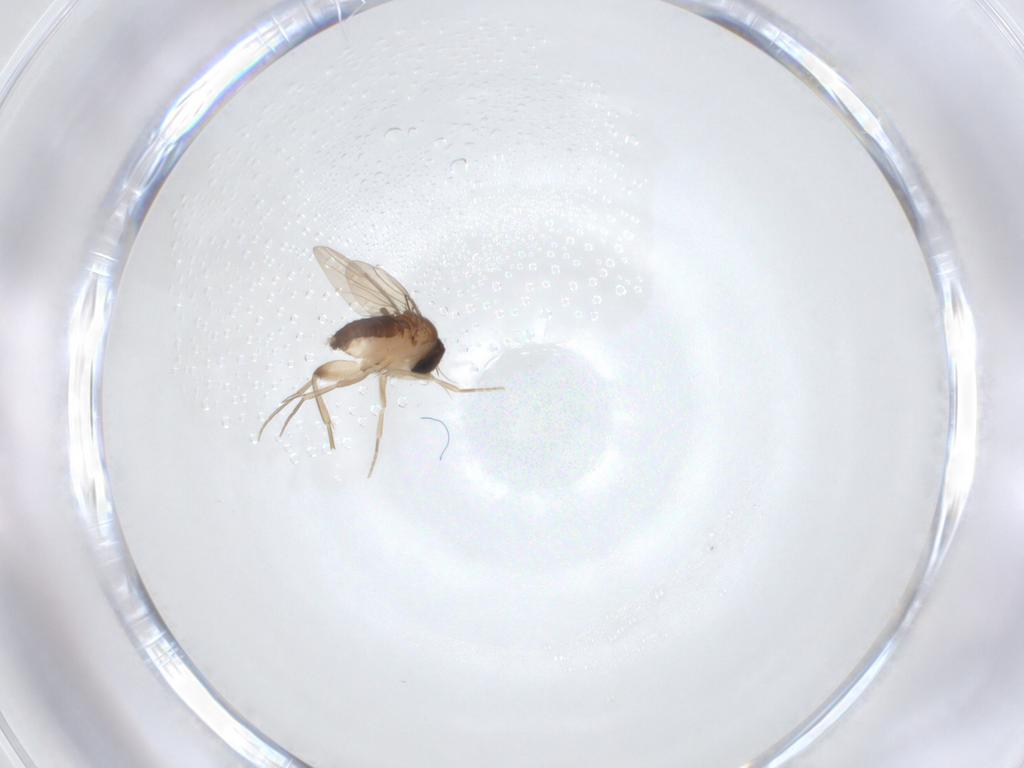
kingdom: Animalia
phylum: Arthropoda
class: Insecta
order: Diptera
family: Phoridae
